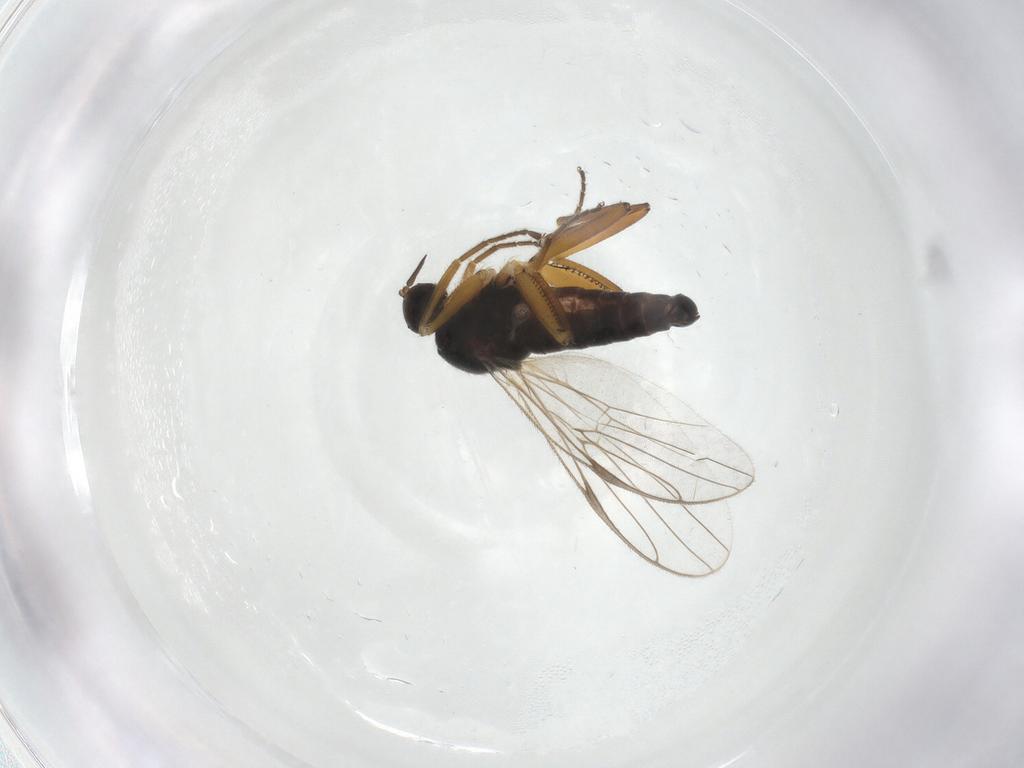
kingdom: Animalia
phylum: Arthropoda
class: Insecta
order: Diptera
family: Hybotidae
